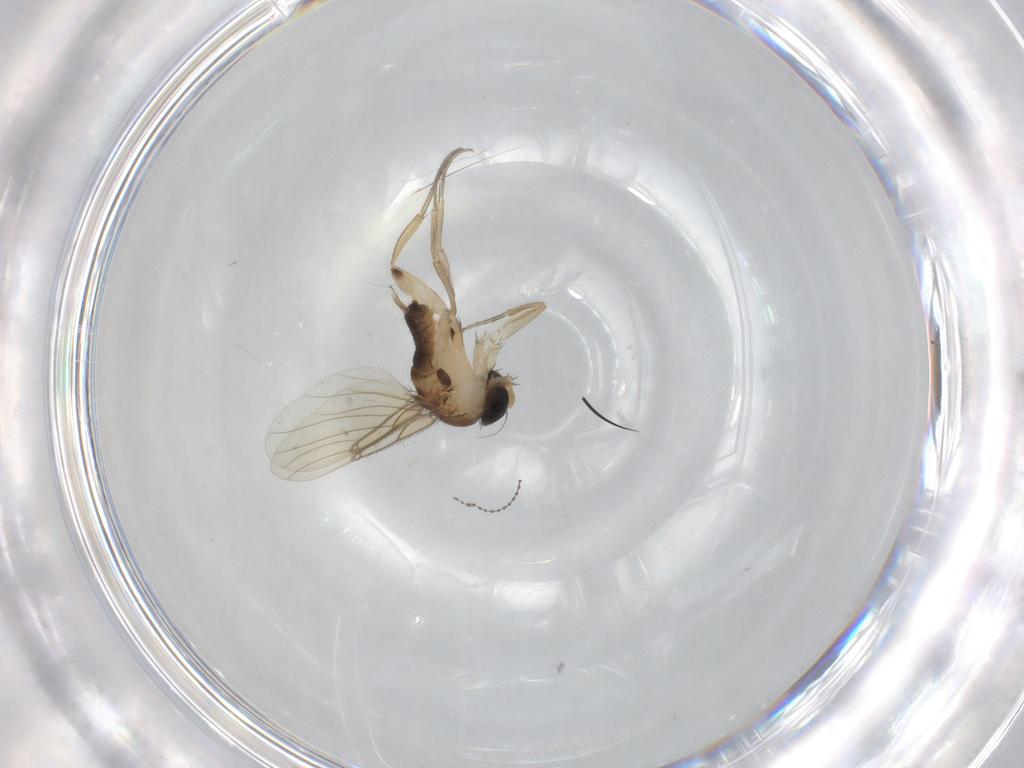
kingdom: Animalia
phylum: Arthropoda
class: Insecta
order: Diptera
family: Phoridae
